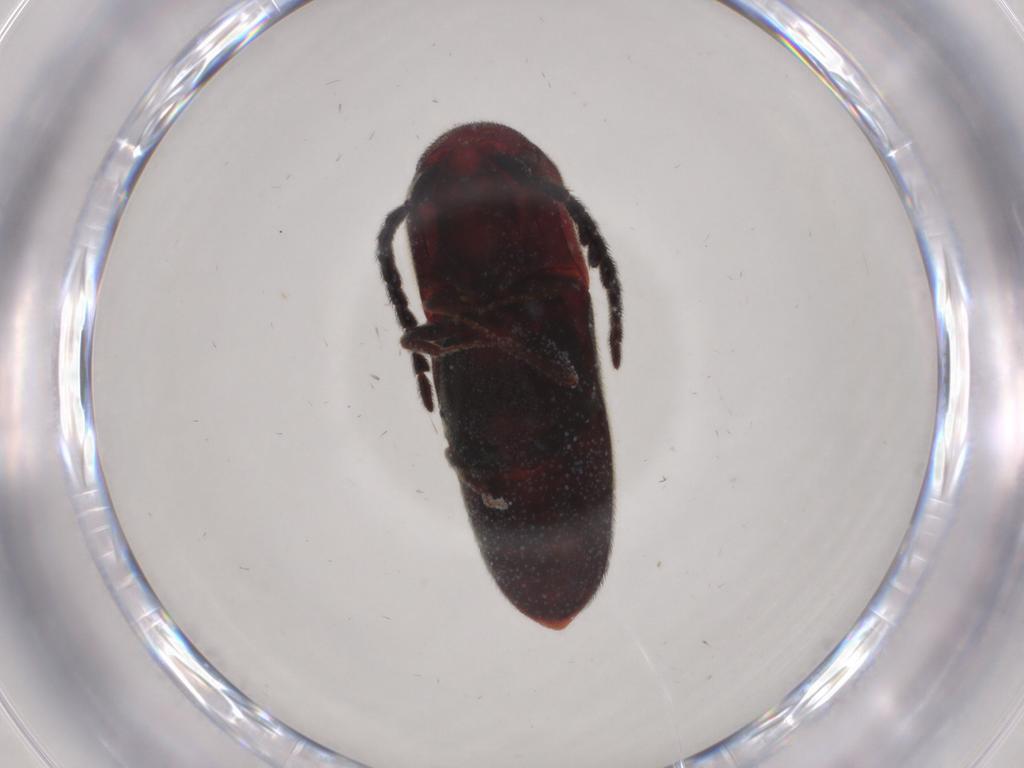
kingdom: Animalia
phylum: Arthropoda
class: Insecta
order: Coleoptera
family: Eucnemidae
